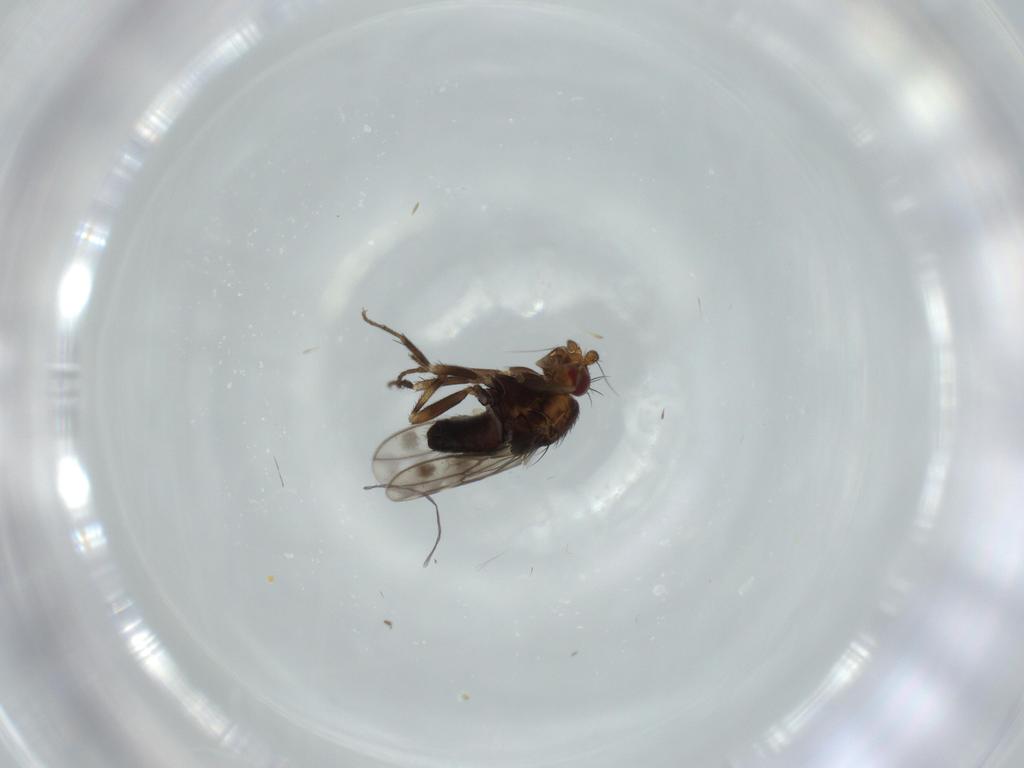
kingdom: Animalia
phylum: Arthropoda
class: Insecta
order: Diptera
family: Sphaeroceridae
